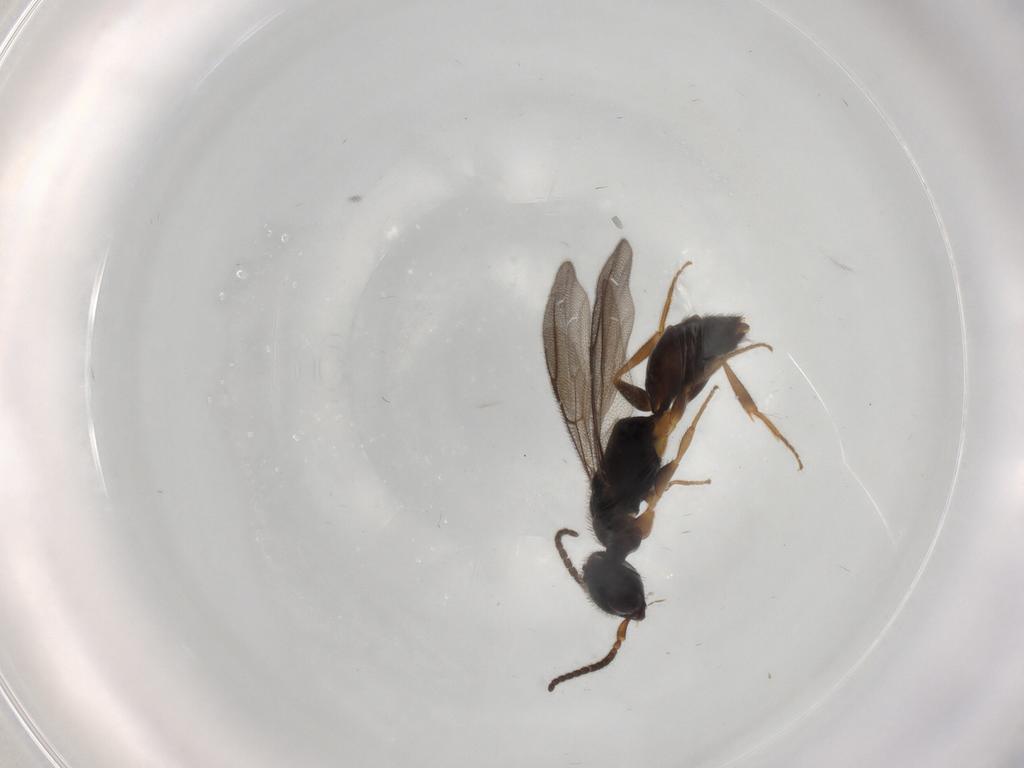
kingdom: Animalia
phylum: Arthropoda
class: Insecta
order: Hymenoptera
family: Bethylidae
